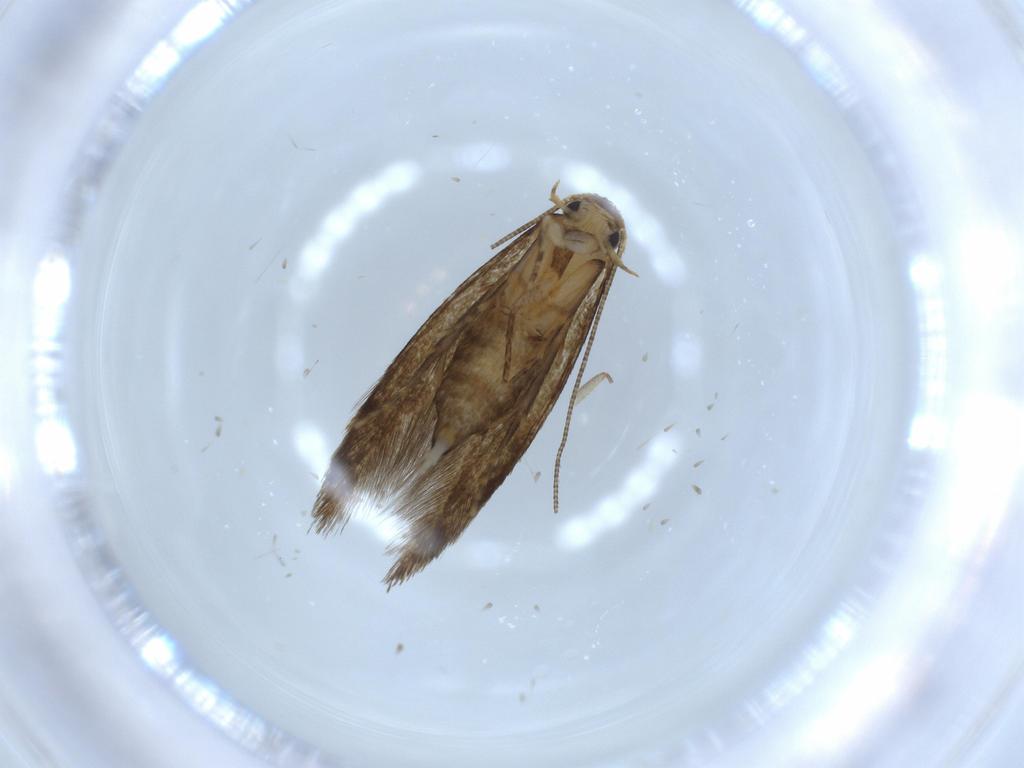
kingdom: Animalia
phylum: Arthropoda
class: Insecta
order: Lepidoptera
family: Tineidae
